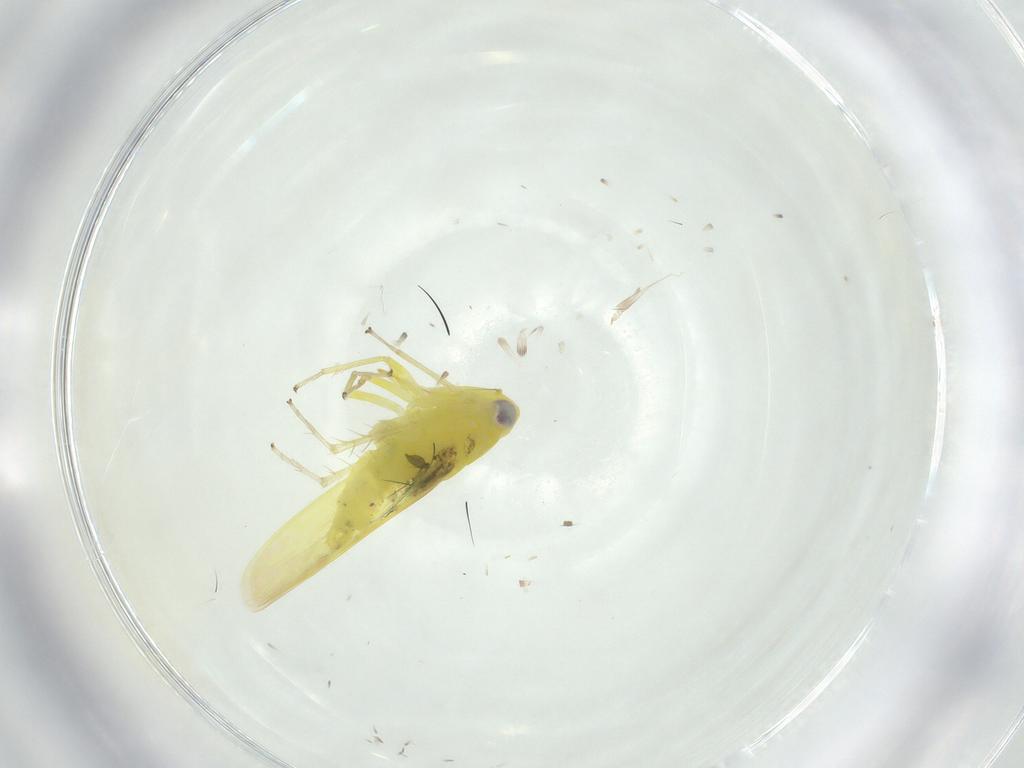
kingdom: Animalia
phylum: Arthropoda
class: Insecta
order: Hemiptera
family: Cicadellidae
